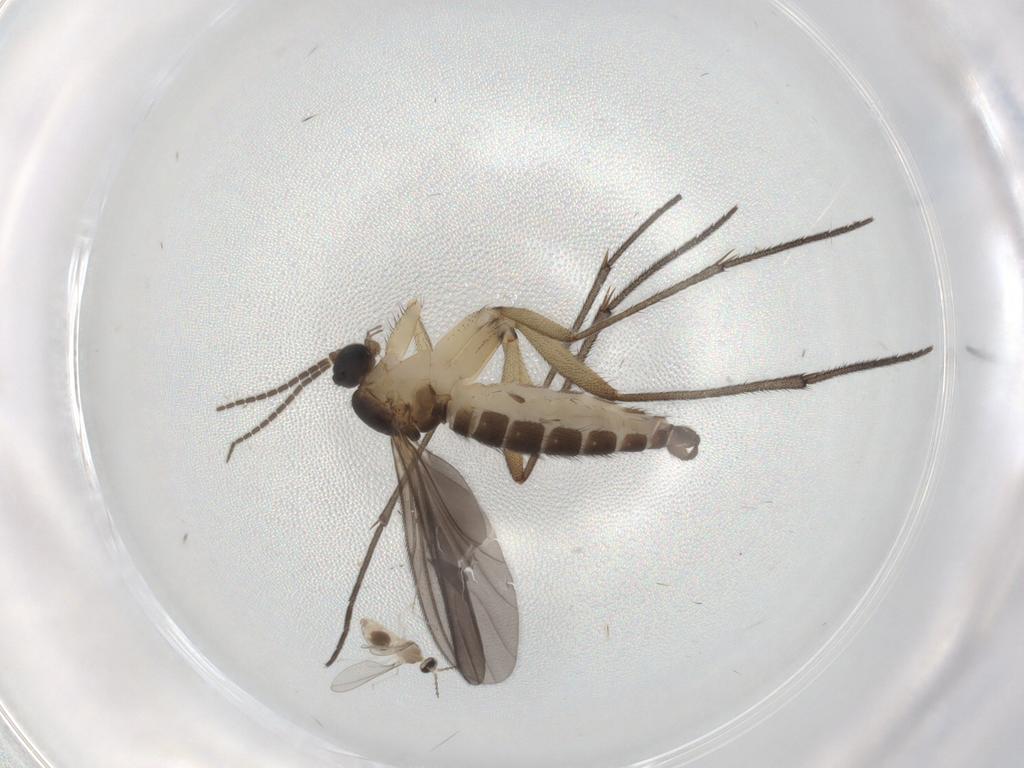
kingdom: Animalia
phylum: Arthropoda
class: Insecta
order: Diptera
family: Sciaridae
